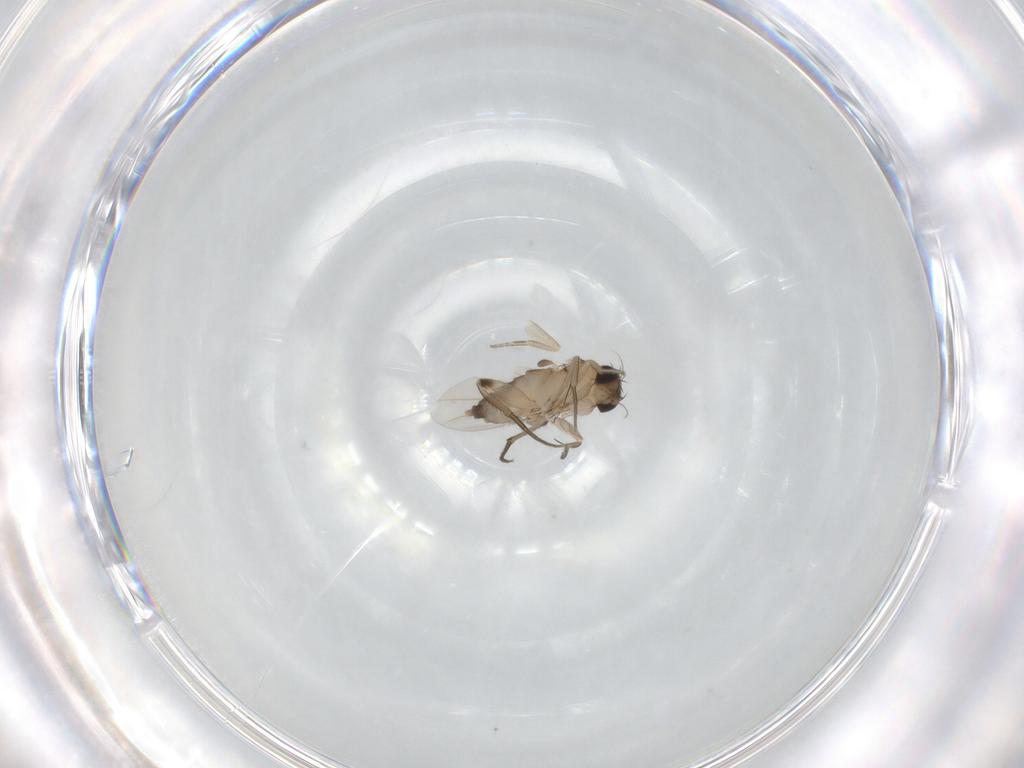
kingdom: Animalia
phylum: Arthropoda
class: Insecta
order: Diptera
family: Phoridae
